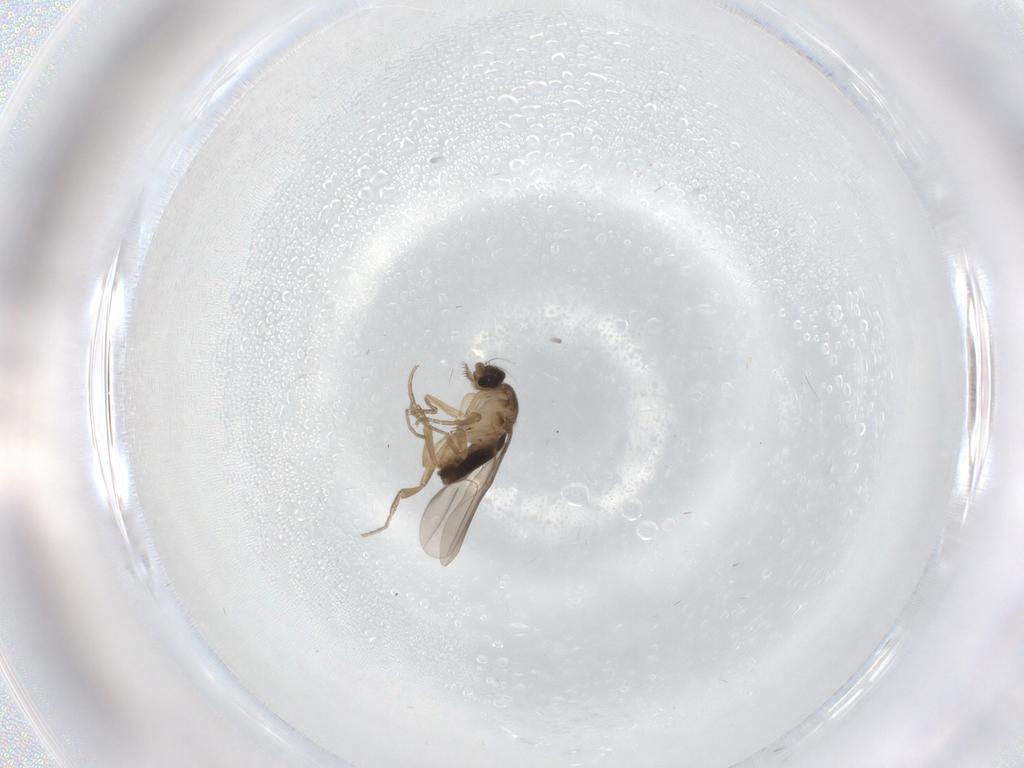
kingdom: Animalia
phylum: Arthropoda
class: Insecta
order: Diptera
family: Phoridae
